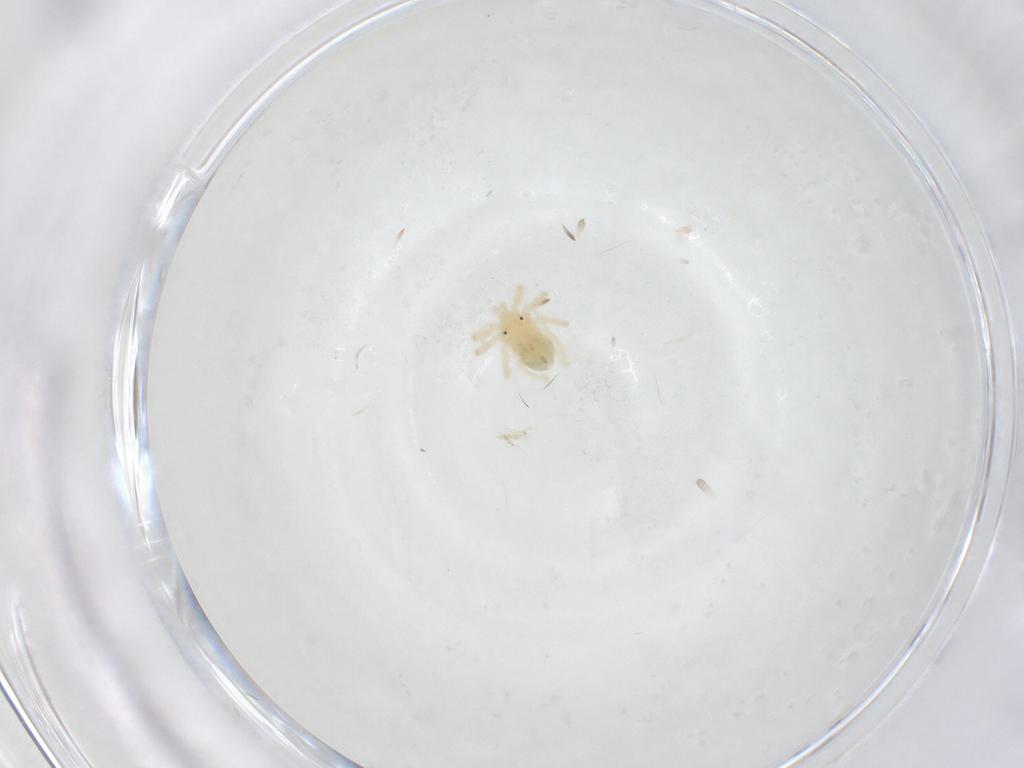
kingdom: Animalia
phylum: Arthropoda
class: Arachnida
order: Trombidiformes
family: Anystidae
